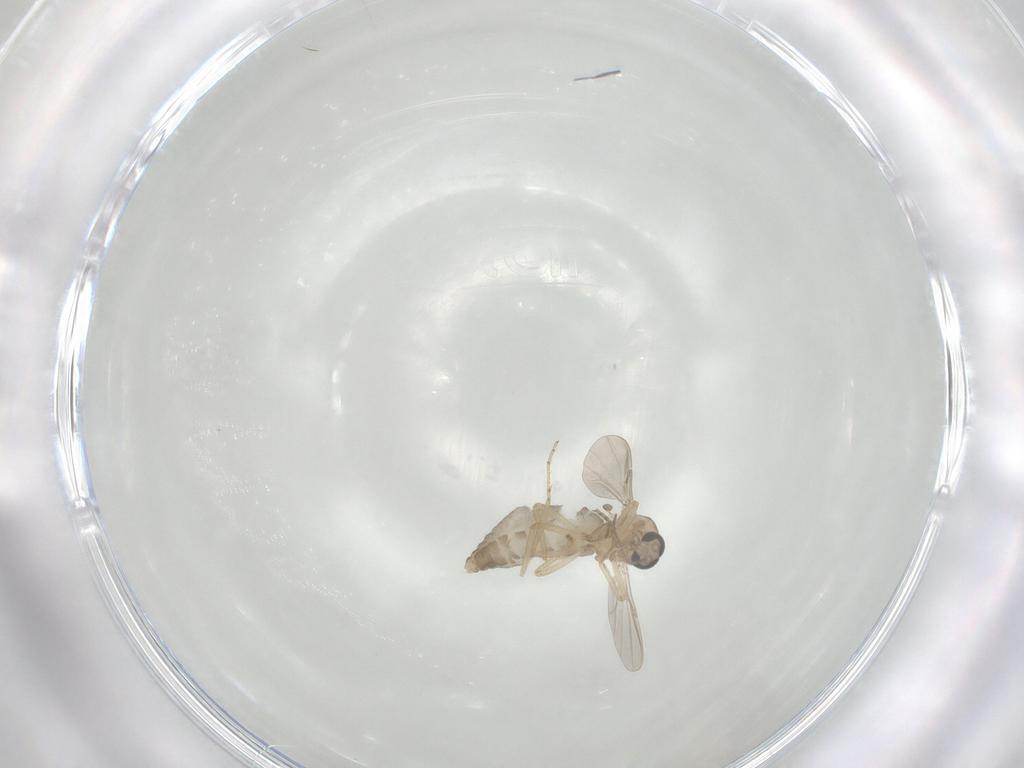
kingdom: Animalia
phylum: Arthropoda
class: Insecta
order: Diptera
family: Ceratopogonidae
